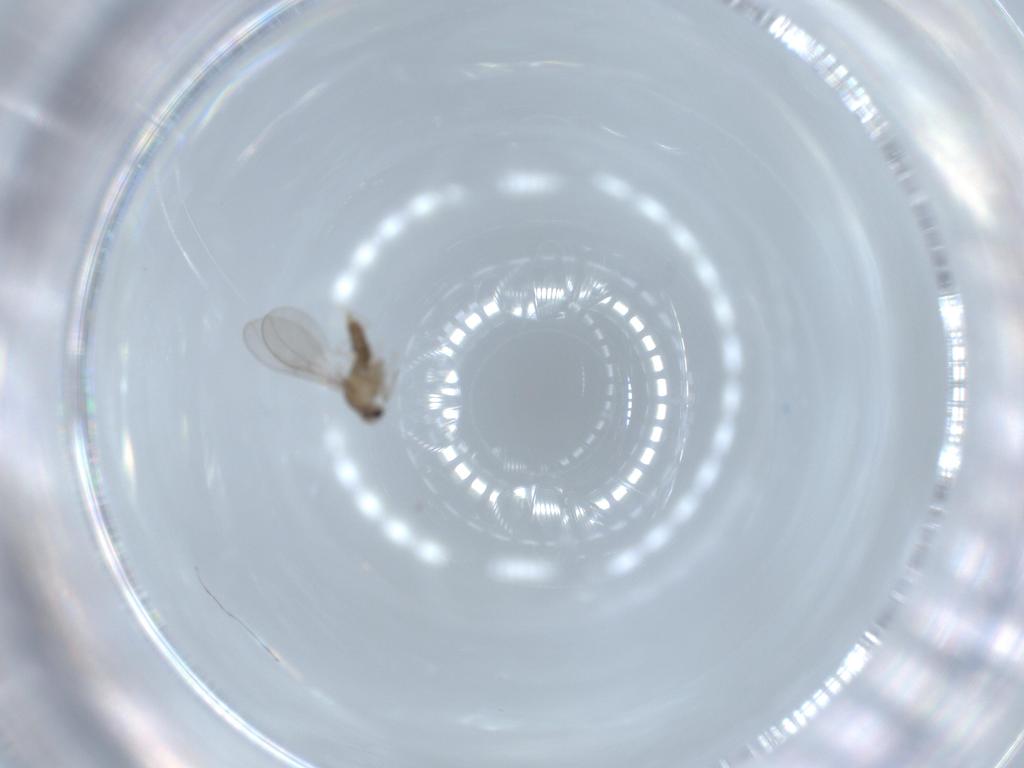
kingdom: Animalia
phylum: Arthropoda
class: Insecta
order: Diptera
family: Cecidomyiidae
